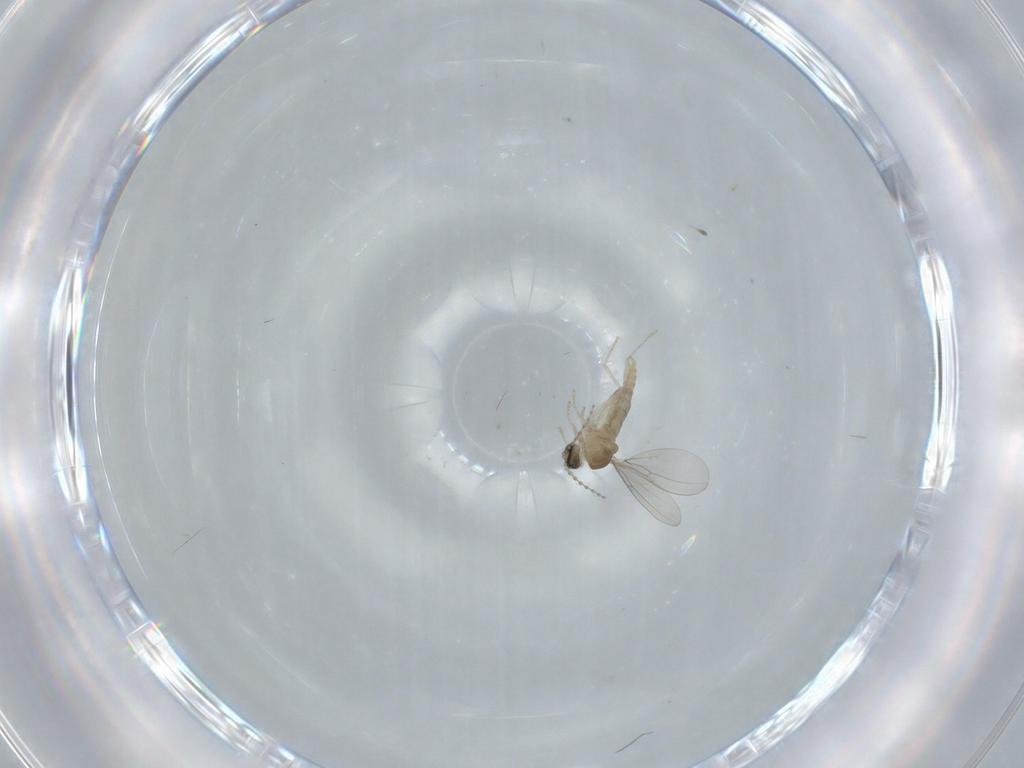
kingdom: Animalia
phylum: Arthropoda
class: Insecta
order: Diptera
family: Cecidomyiidae
